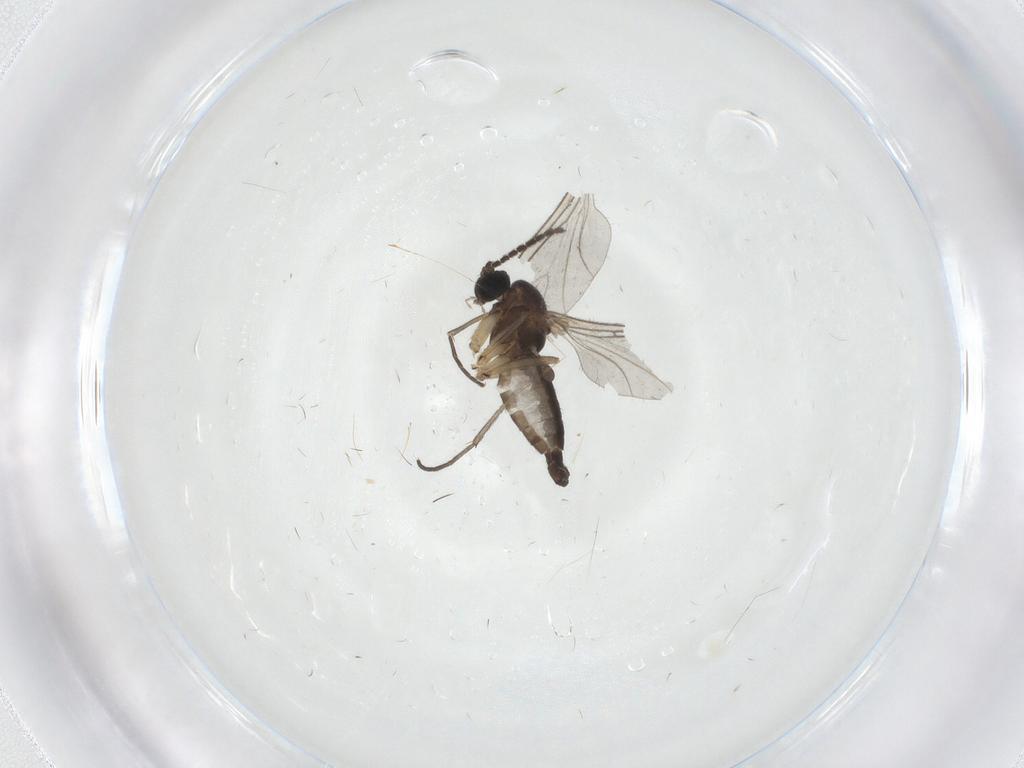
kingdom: Animalia
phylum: Arthropoda
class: Insecta
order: Diptera
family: Sciaridae
